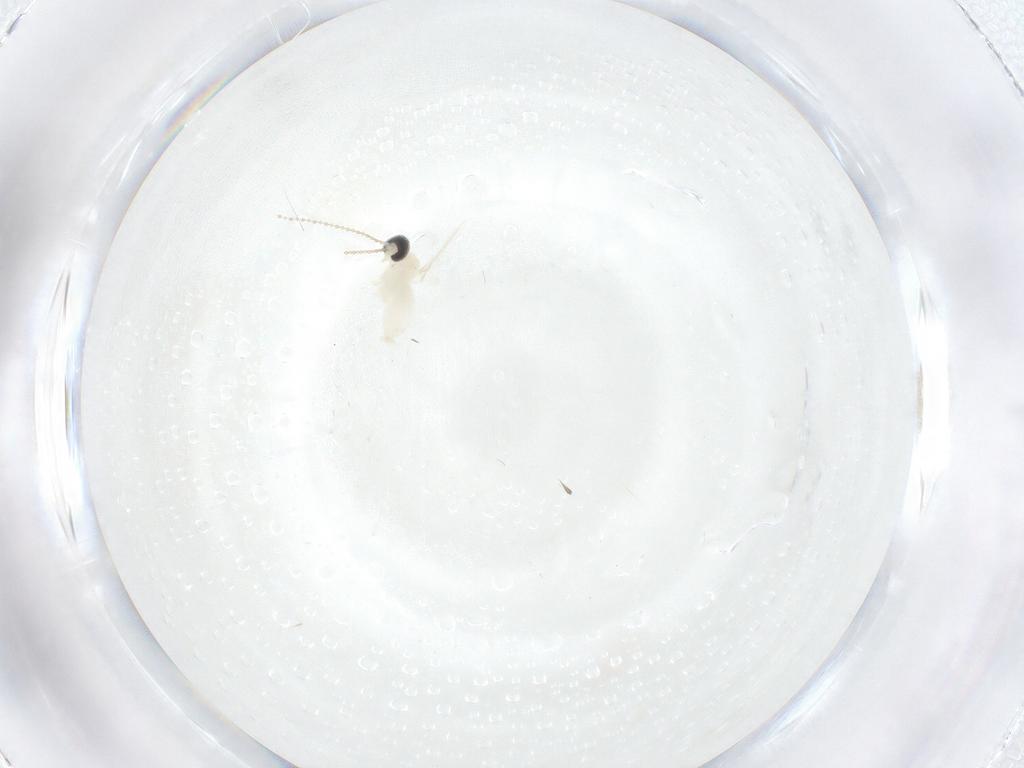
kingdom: Animalia
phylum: Arthropoda
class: Insecta
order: Diptera
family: Cecidomyiidae
